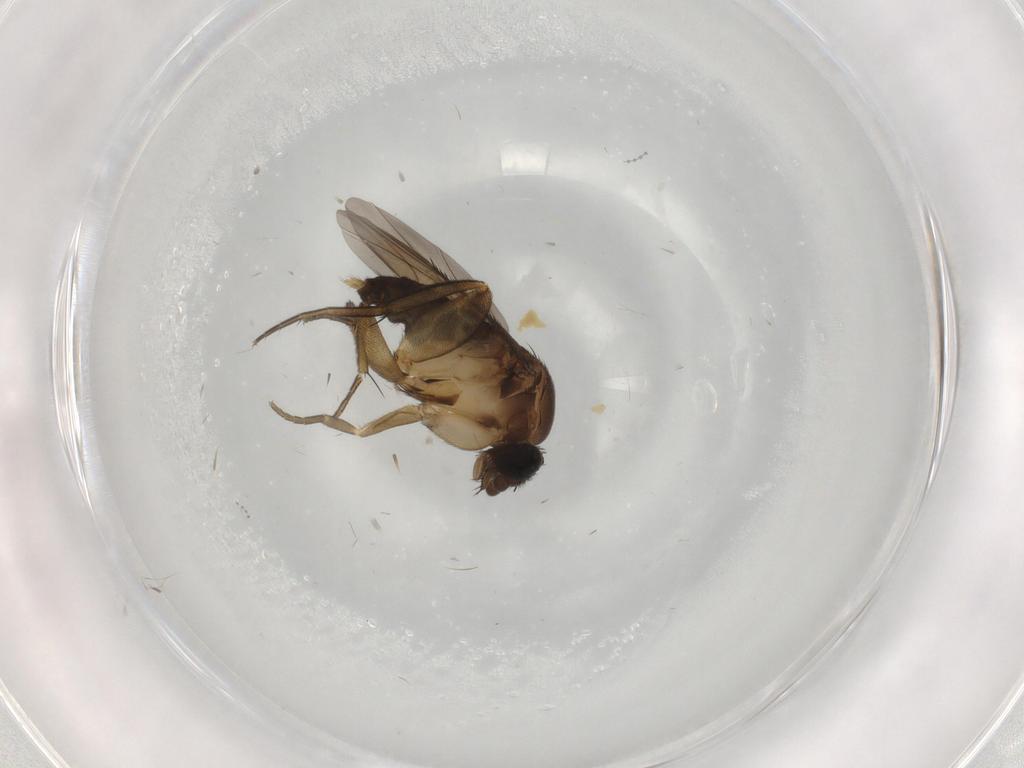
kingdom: Animalia
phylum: Arthropoda
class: Insecta
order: Diptera
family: Phoridae
